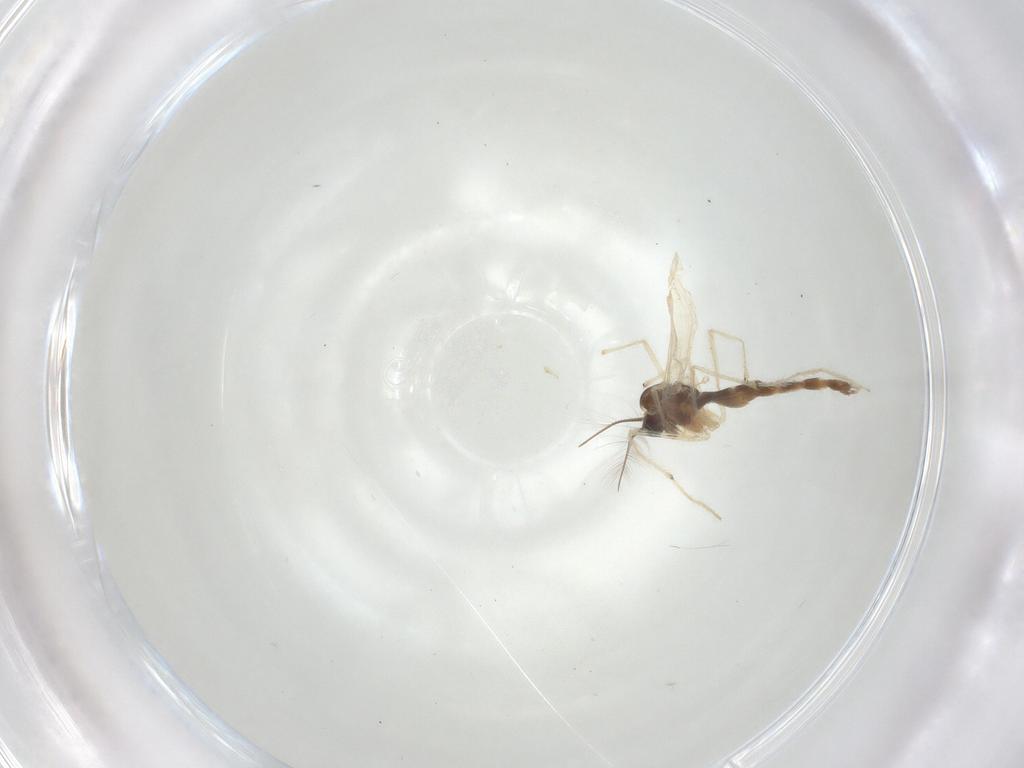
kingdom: Animalia
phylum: Arthropoda
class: Insecta
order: Diptera
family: Chironomidae
